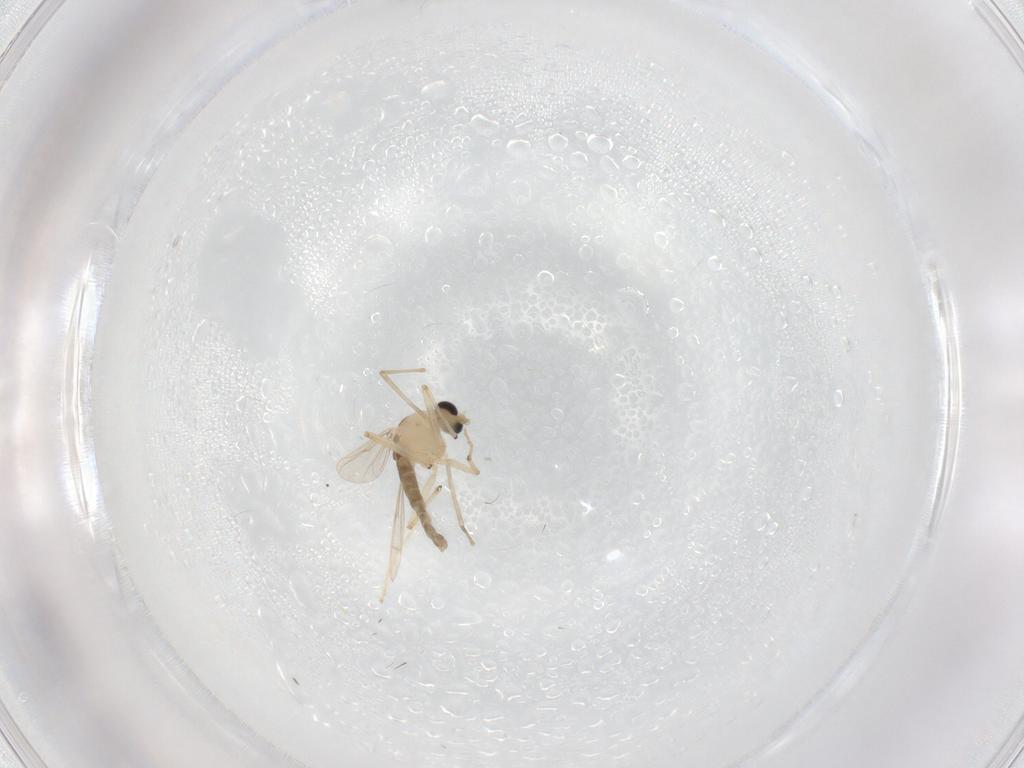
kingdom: Animalia
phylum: Arthropoda
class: Insecta
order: Diptera
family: Chironomidae
